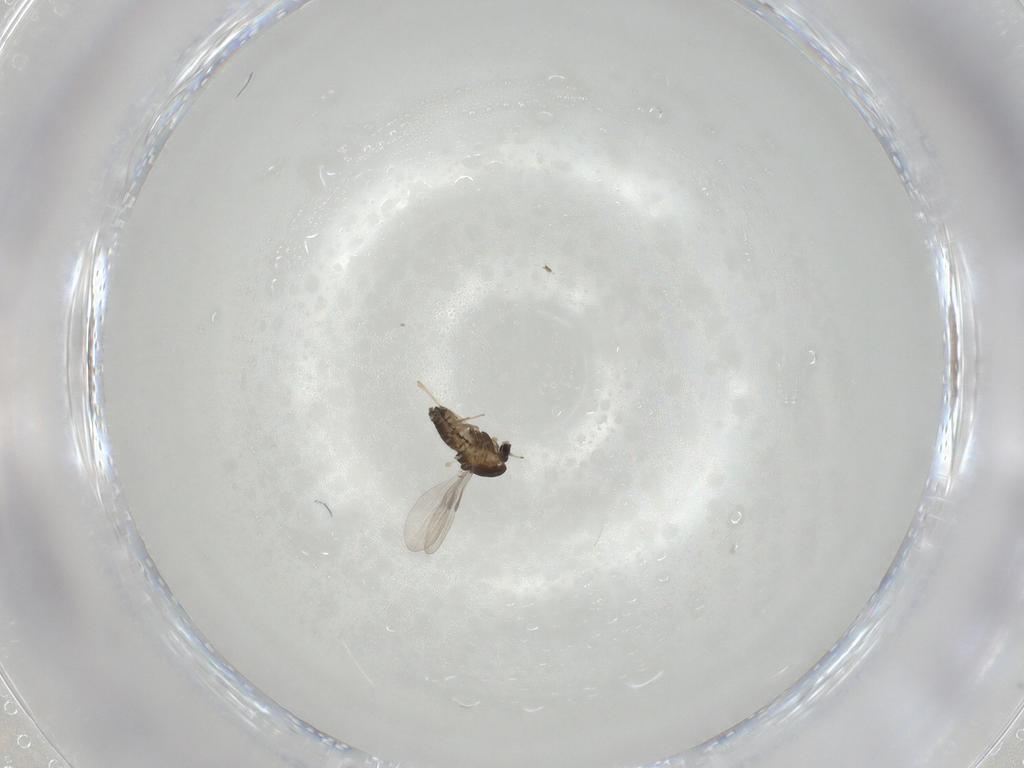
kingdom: Animalia
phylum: Arthropoda
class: Insecta
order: Diptera
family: Chironomidae
